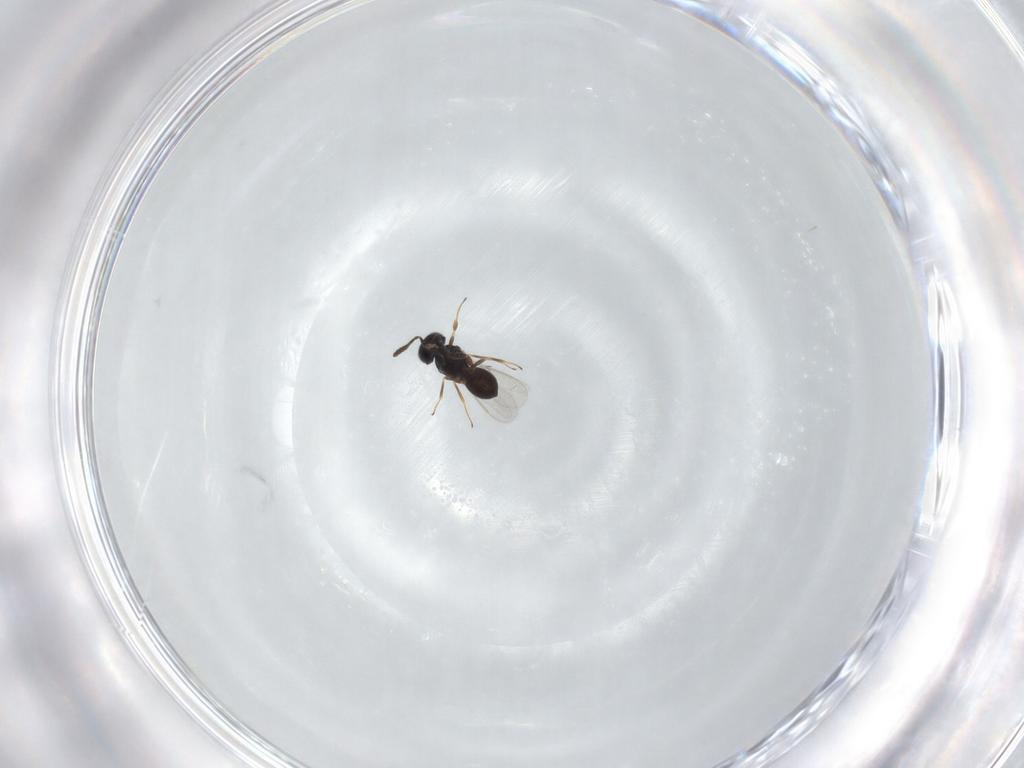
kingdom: Animalia
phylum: Arthropoda
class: Insecta
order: Hymenoptera
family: Scelionidae
